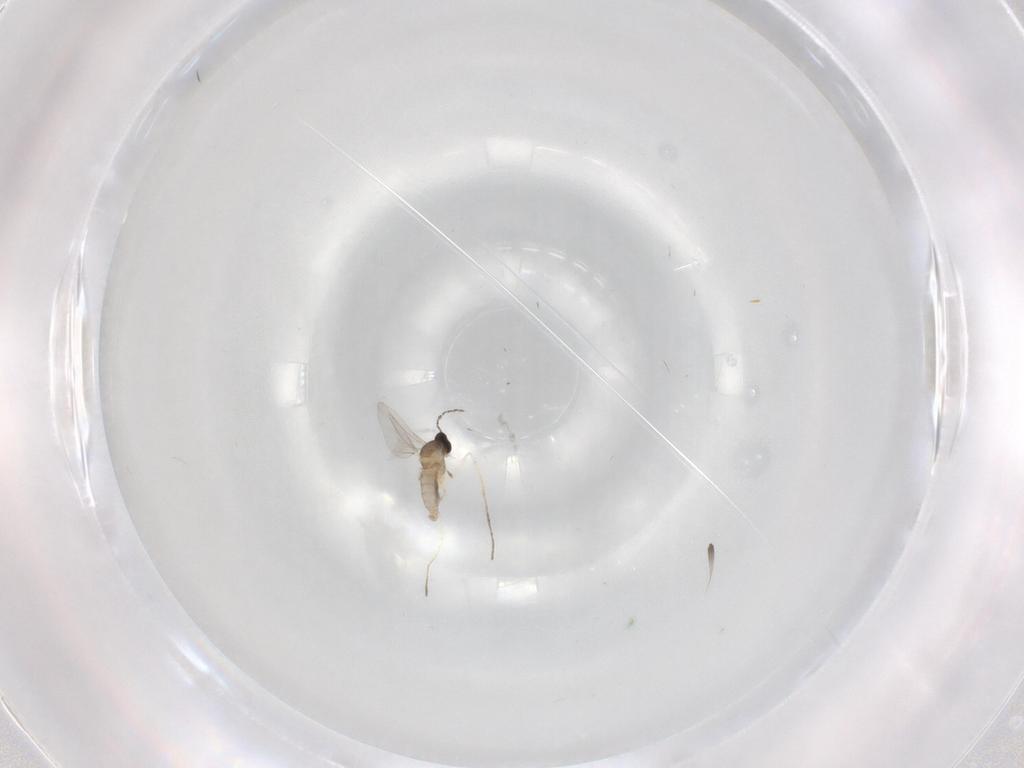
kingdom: Animalia
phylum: Arthropoda
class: Insecta
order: Diptera
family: Cecidomyiidae
